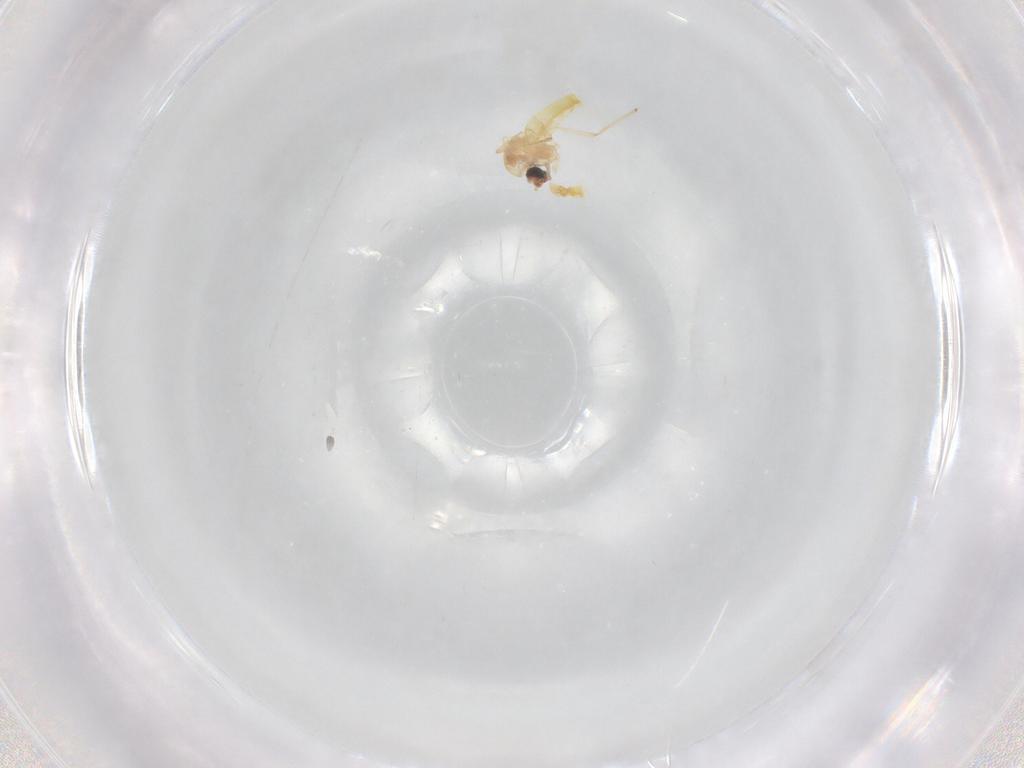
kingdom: Animalia
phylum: Arthropoda
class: Insecta
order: Diptera
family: Chironomidae
